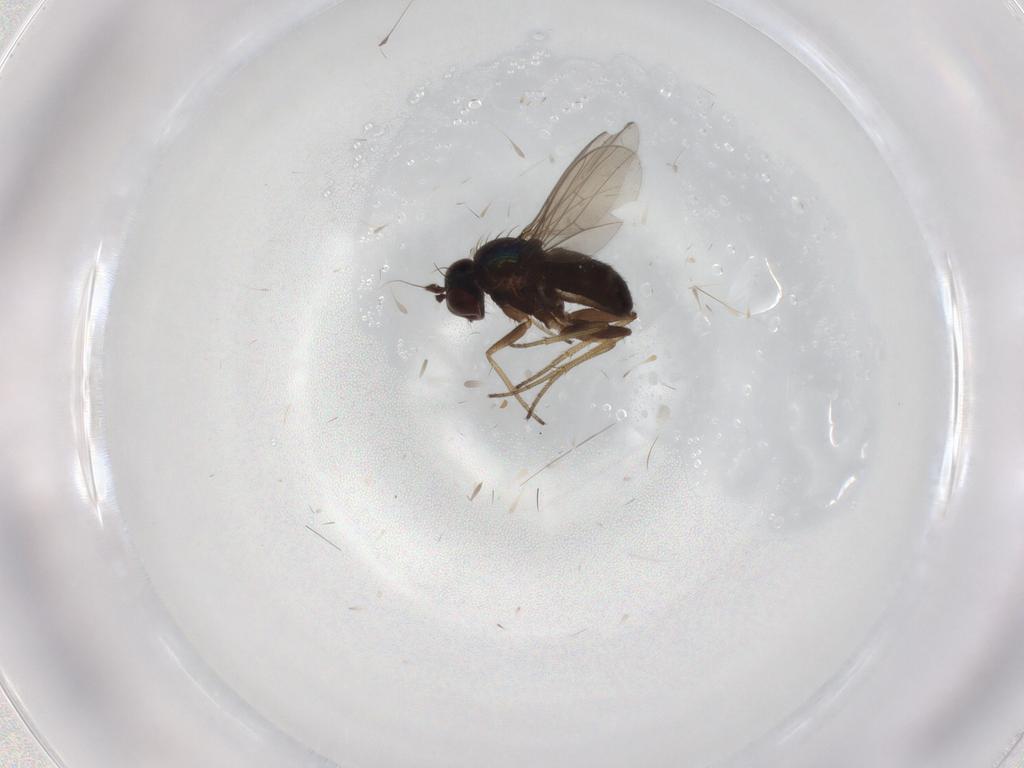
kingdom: Animalia
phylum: Arthropoda
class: Insecta
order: Diptera
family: Dolichopodidae
